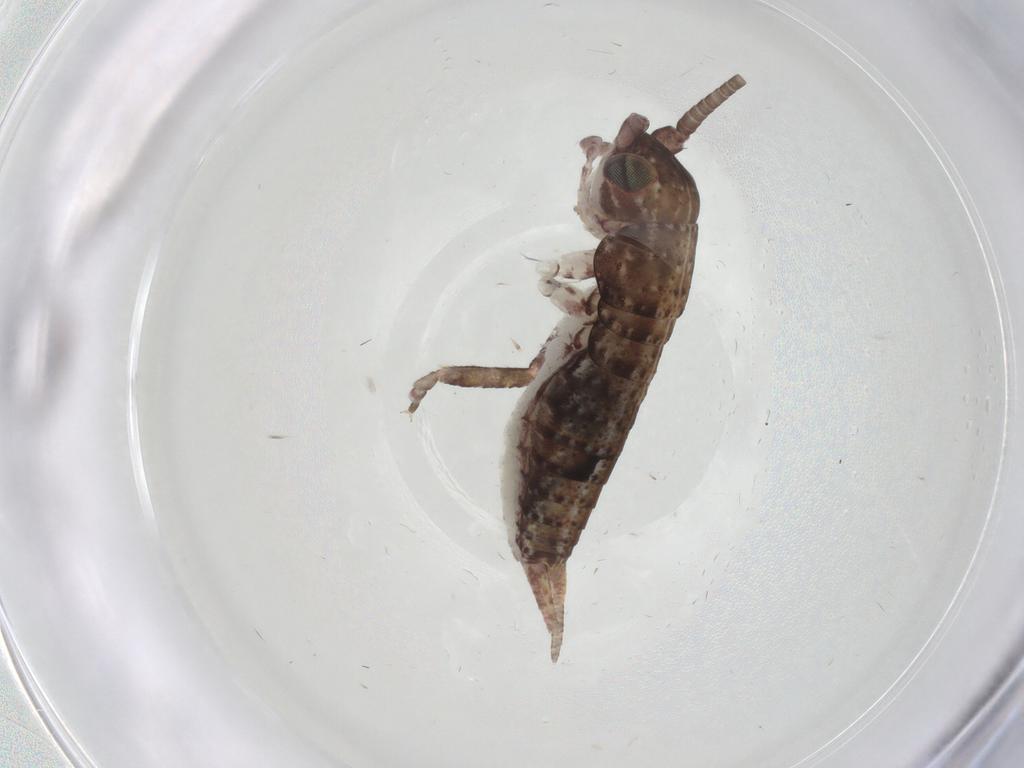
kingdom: Animalia
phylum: Arthropoda
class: Insecta
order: Orthoptera
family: Gryllidae
